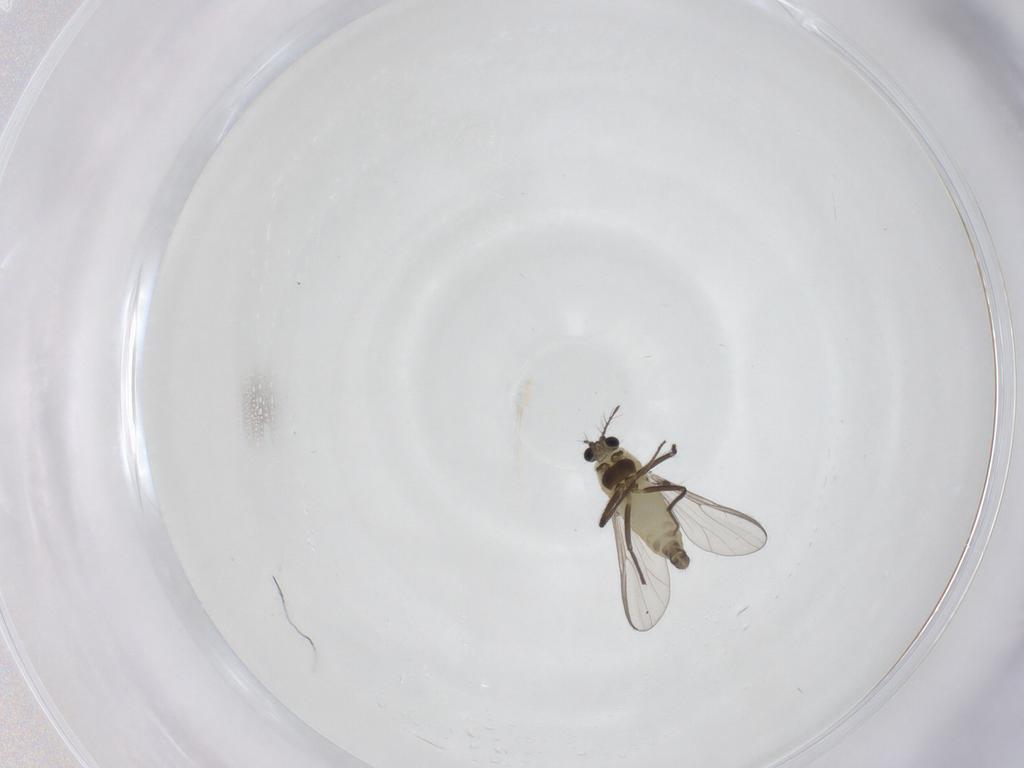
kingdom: Animalia
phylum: Arthropoda
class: Insecta
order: Diptera
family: Chironomidae
